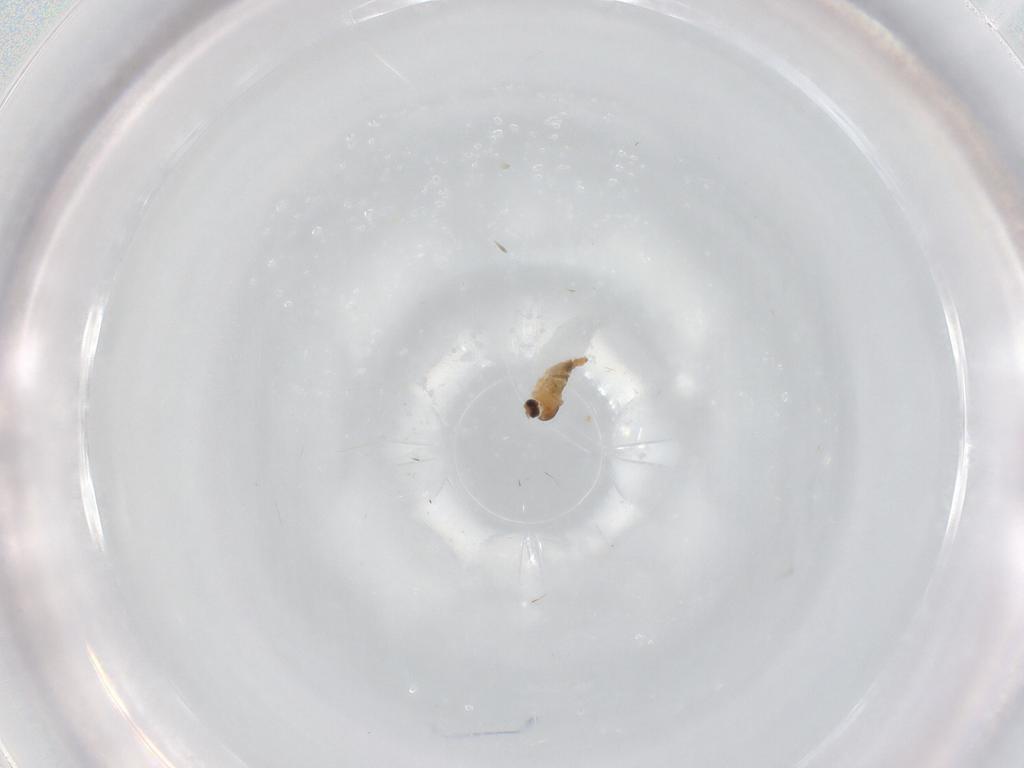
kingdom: Animalia
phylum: Arthropoda
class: Insecta
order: Diptera
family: Cecidomyiidae
